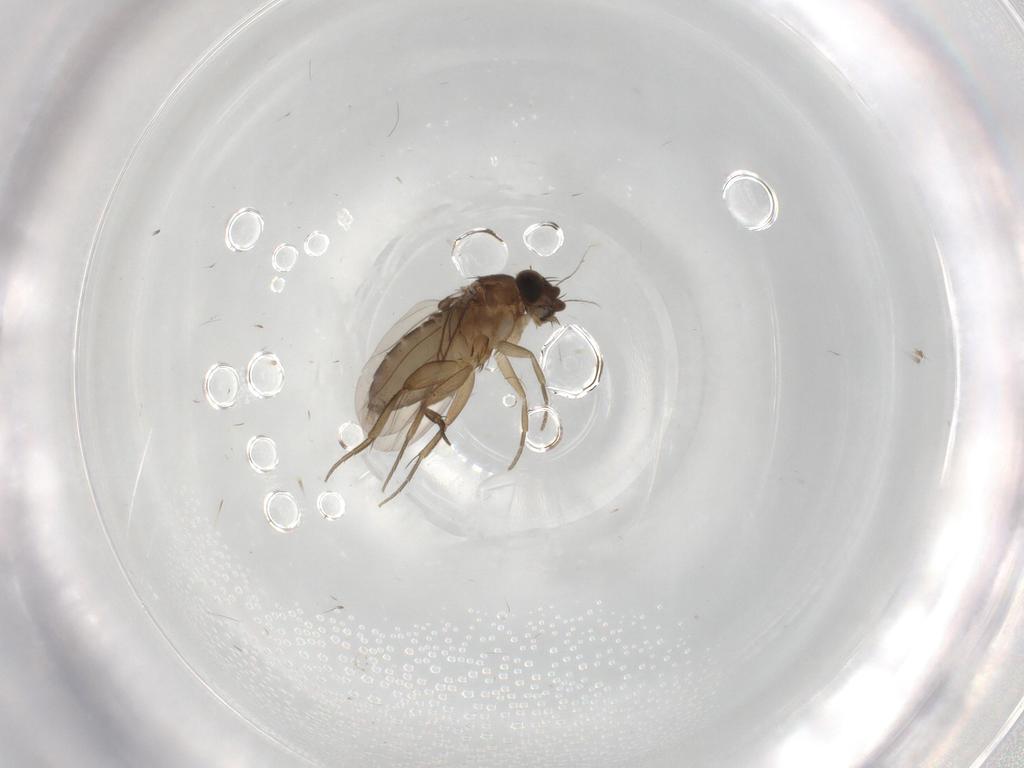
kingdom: Animalia
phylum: Arthropoda
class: Insecta
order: Diptera
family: Phoridae
